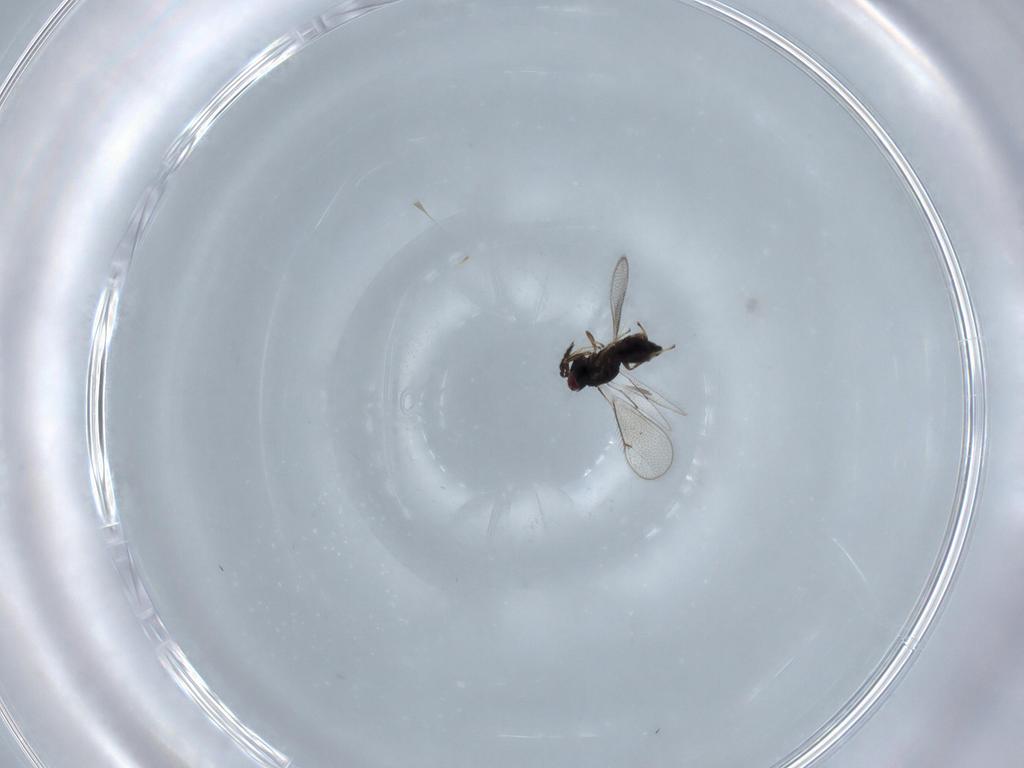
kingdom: Animalia
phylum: Arthropoda
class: Insecta
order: Hymenoptera
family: Eulophidae
